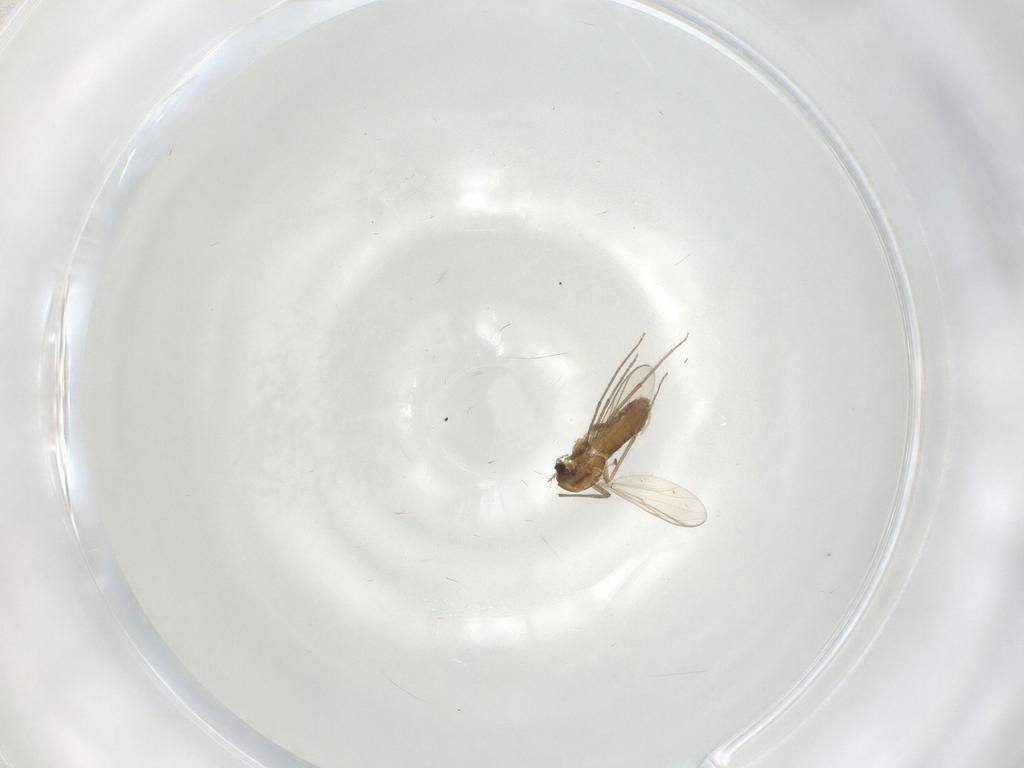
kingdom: Animalia
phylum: Arthropoda
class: Insecta
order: Diptera
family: Chironomidae
